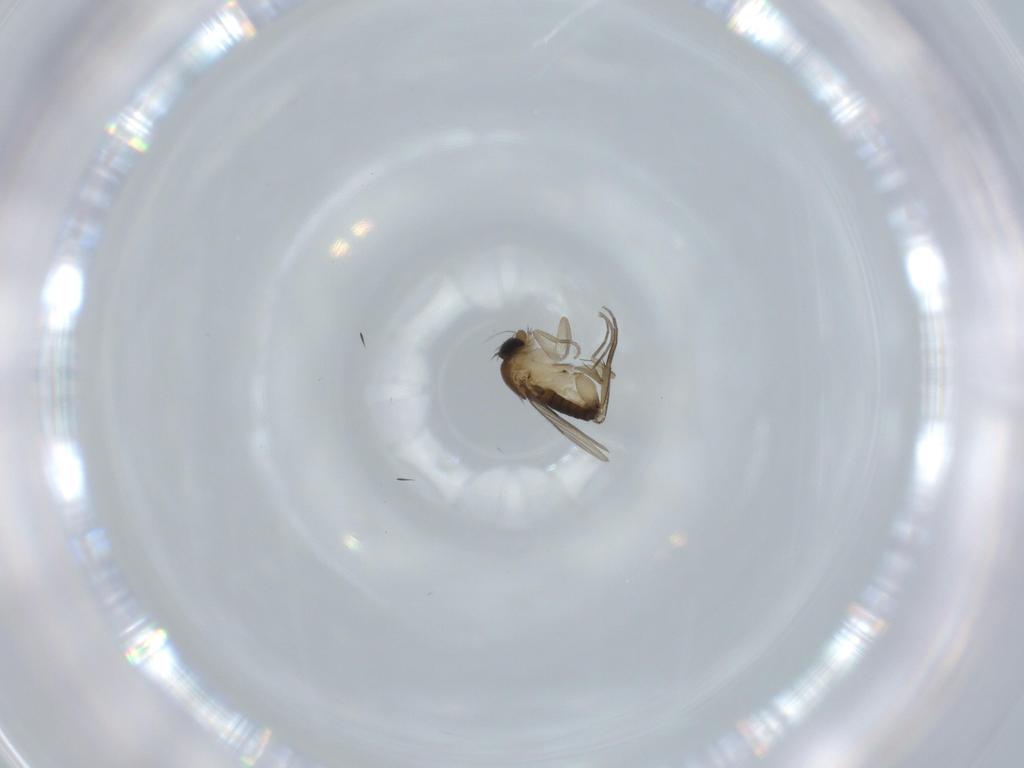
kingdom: Animalia
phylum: Arthropoda
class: Insecta
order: Diptera
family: Phoridae
